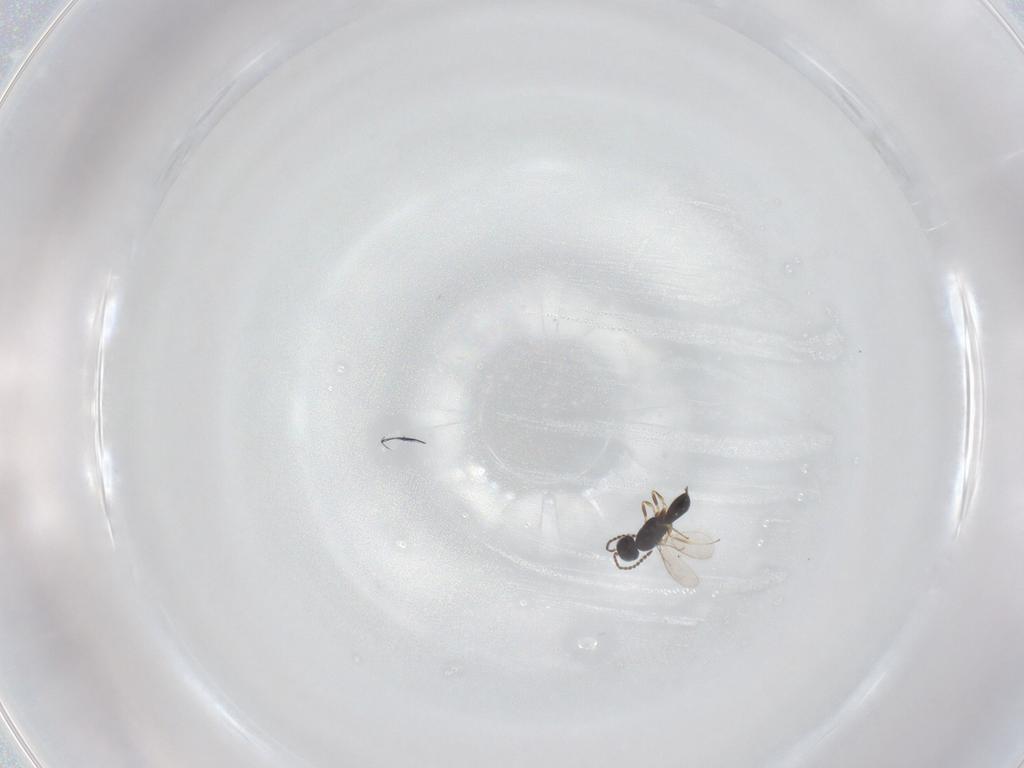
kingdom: Animalia
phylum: Arthropoda
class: Insecta
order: Hymenoptera
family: Scelionidae
